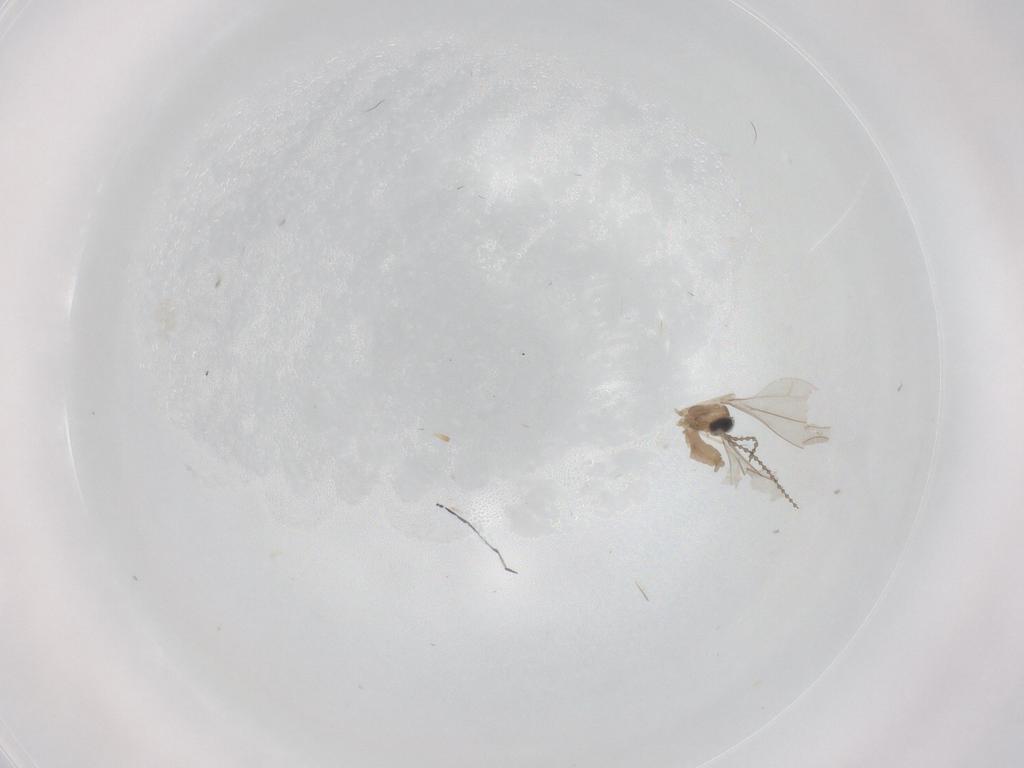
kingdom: Animalia
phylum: Arthropoda
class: Insecta
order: Diptera
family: Cecidomyiidae
